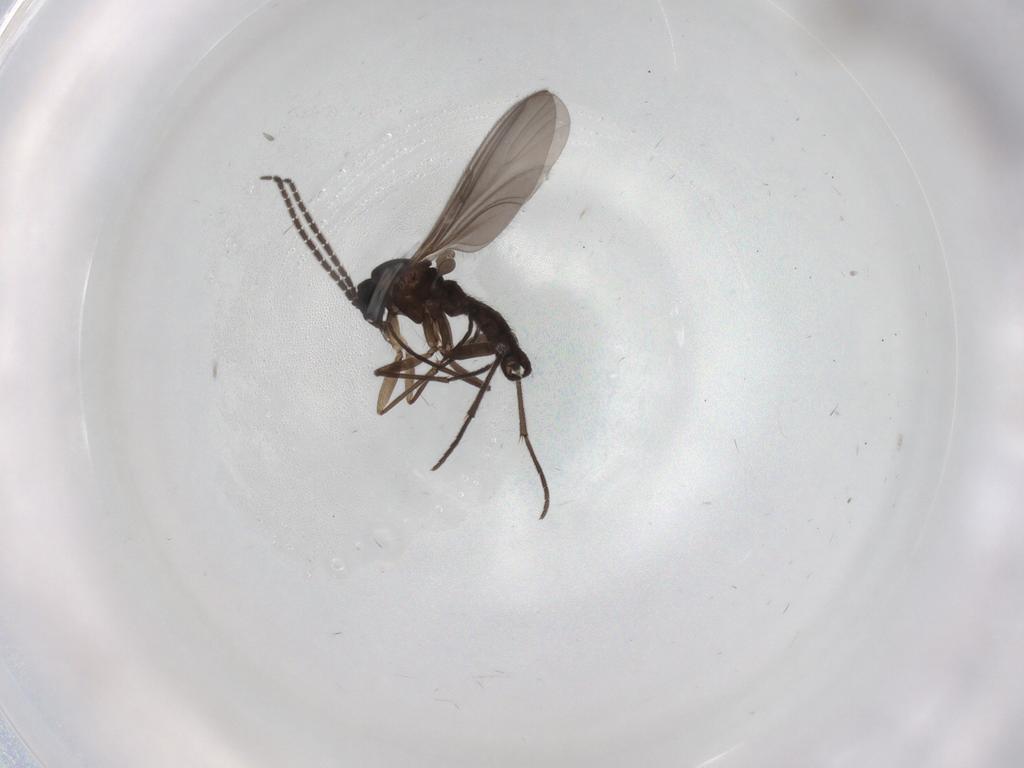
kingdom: Animalia
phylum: Arthropoda
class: Insecta
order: Diptera
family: Sciaridae
